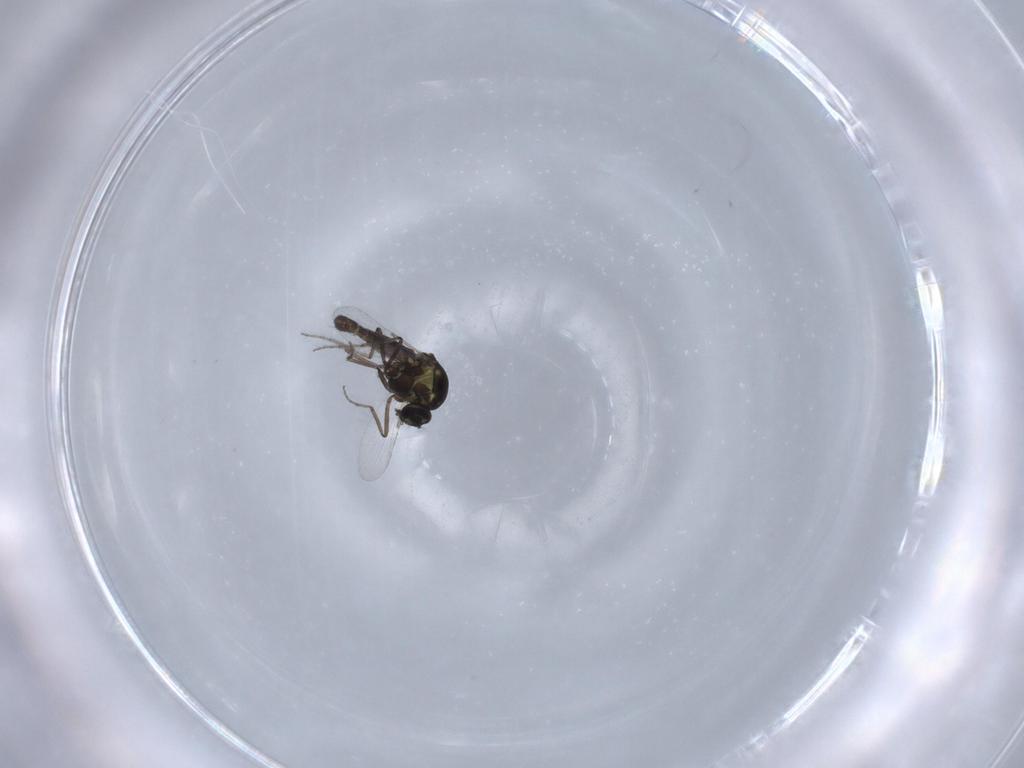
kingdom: Animalia
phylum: Arthropoda
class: Insecta
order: Diptera
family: Ceratopogonidae
